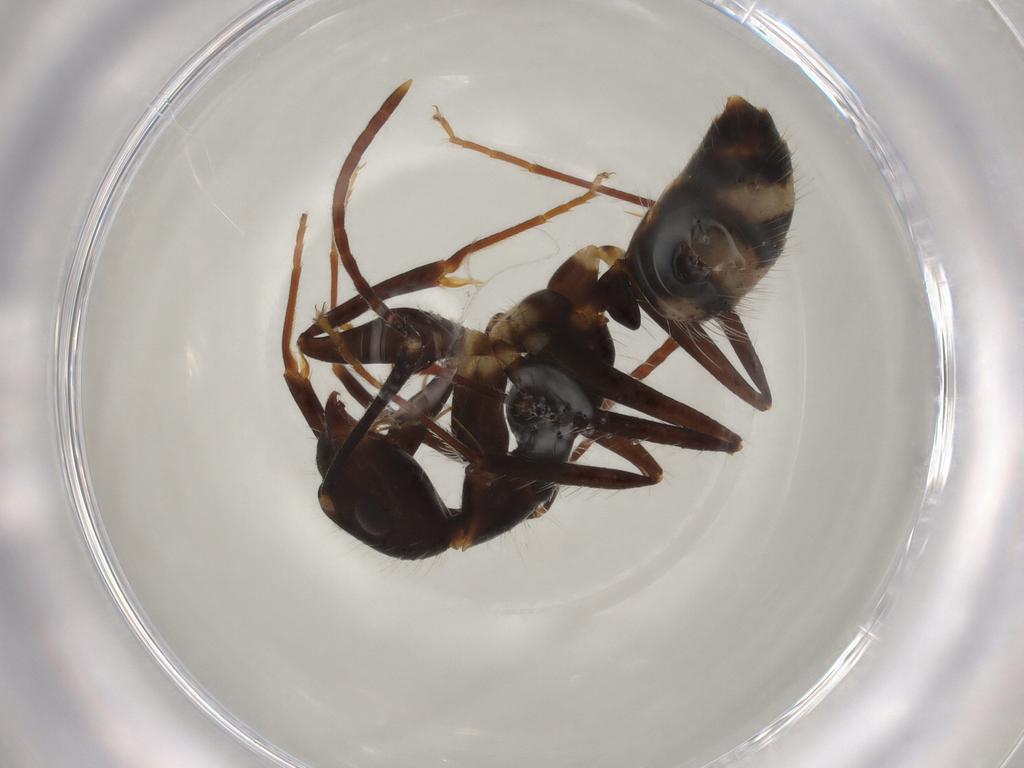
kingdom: Animalia
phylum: Arthropoda
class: Insecta
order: Hymenoptera
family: Formicidae
